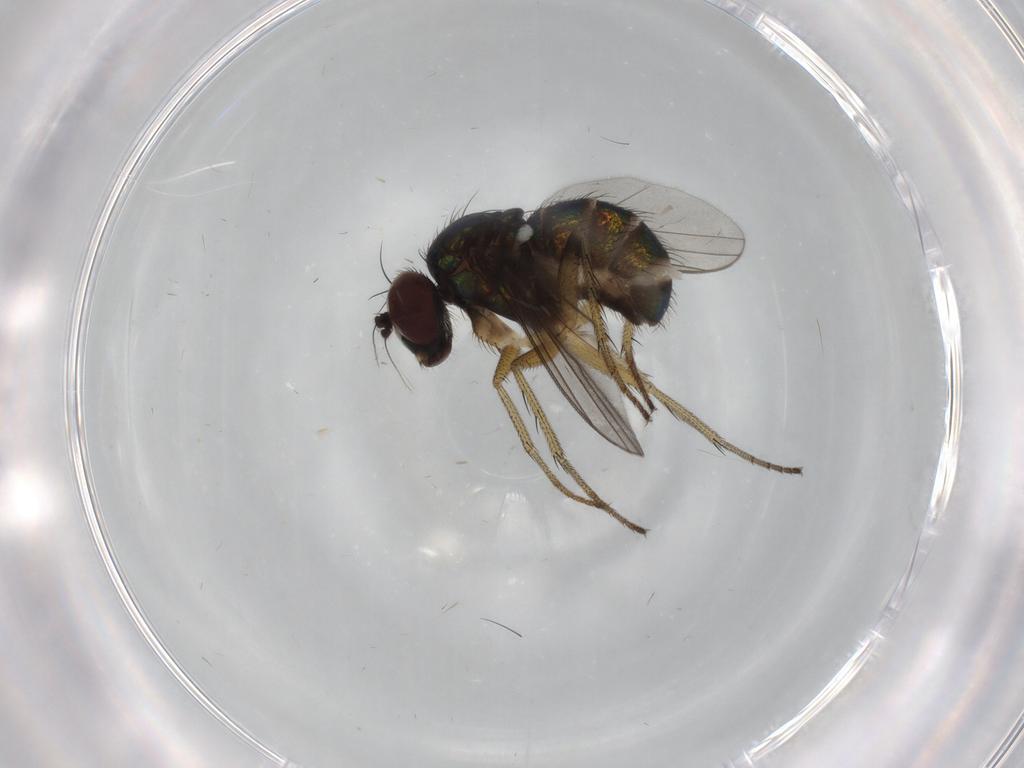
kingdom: Animalia
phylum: Arthropoda
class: Insecta
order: Diptera
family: Dolichopodidae
